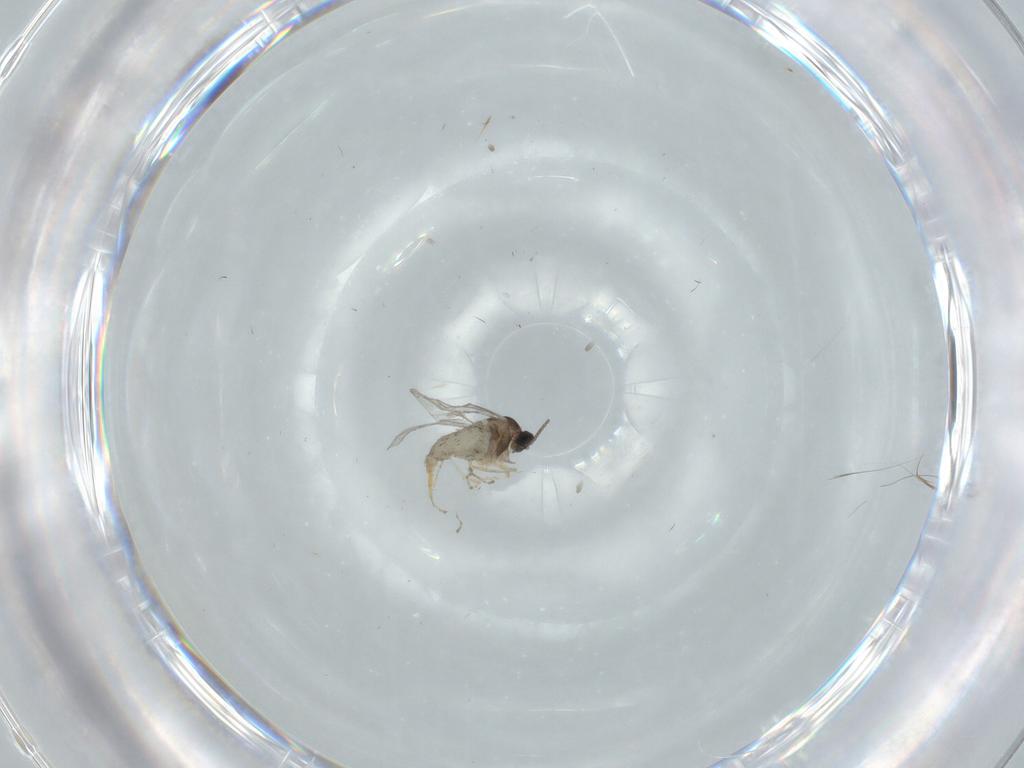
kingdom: Animalia
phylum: Arthropoda
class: Insecta
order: Diptera
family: Cecidomyiidae
